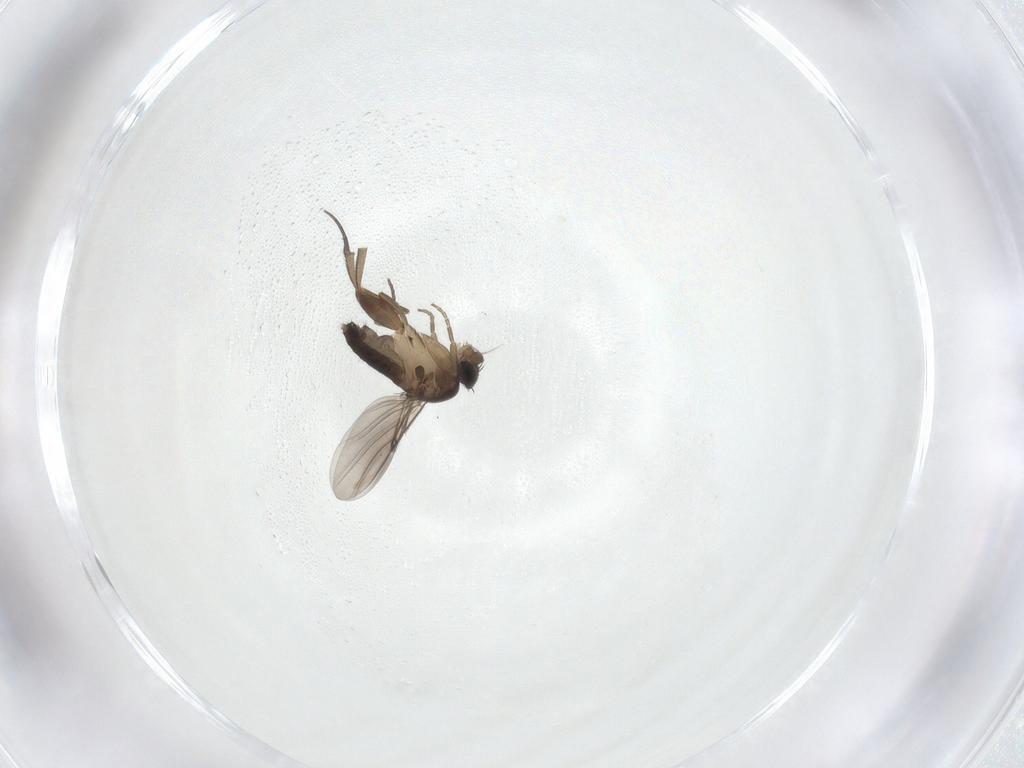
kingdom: Animalia
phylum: Arthropoda
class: Insecta
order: Diptera
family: Phoridae
